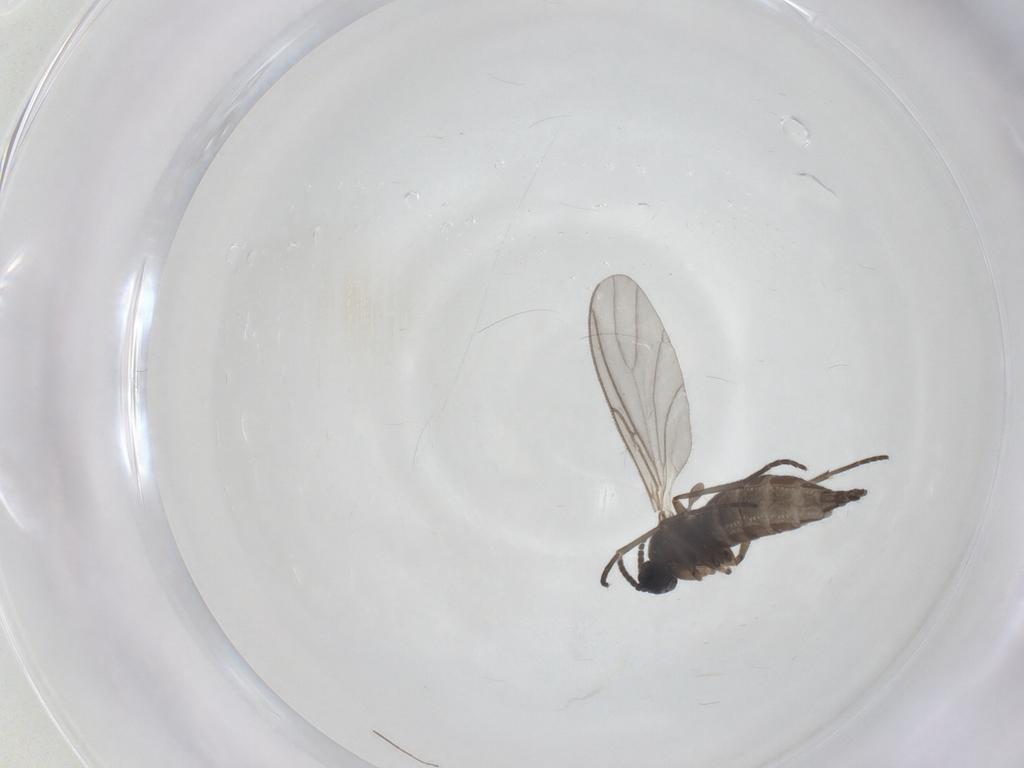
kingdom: Animalia
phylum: Arthropoda
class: Insecta
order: Diptera
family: Sciaridae
